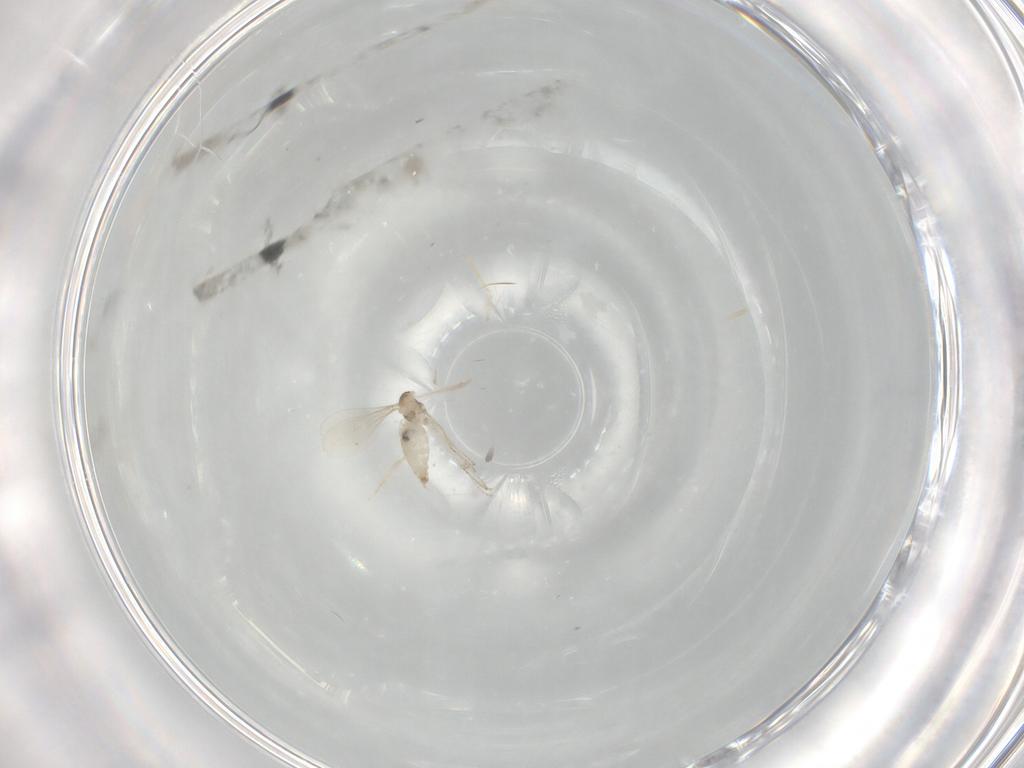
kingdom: Animalia
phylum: Arthropoda
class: Insecta
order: Diptera
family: Cecidomyiidae
